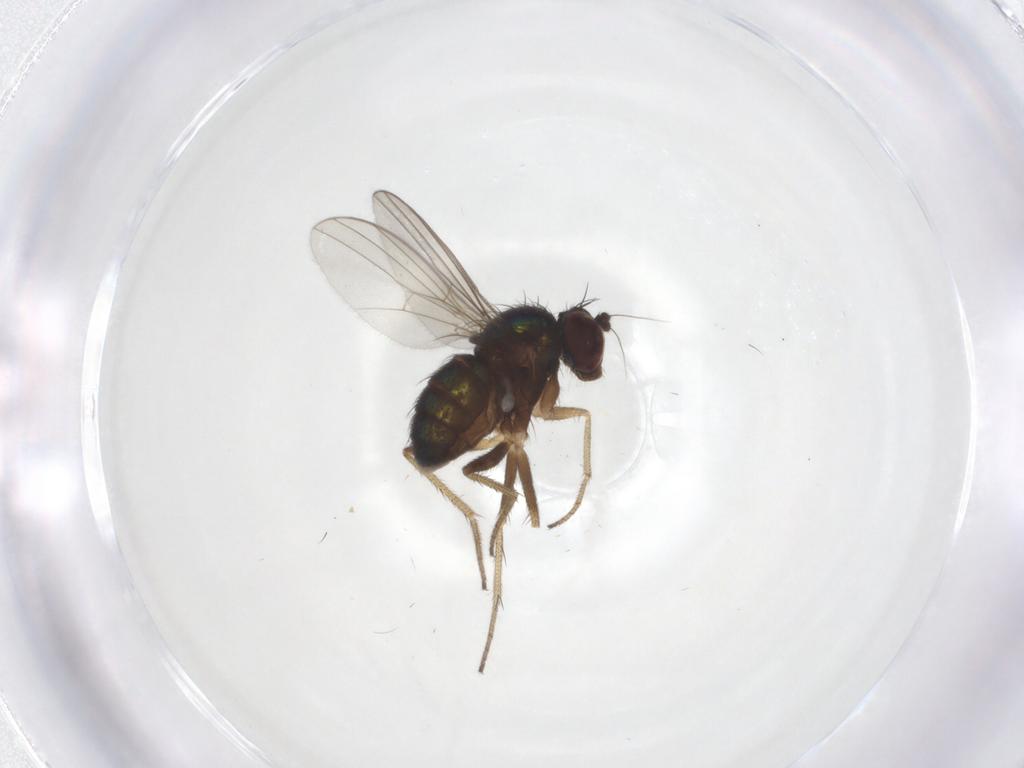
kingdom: Animalia
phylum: Arthropoda
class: Insecta
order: Diptera
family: Dolichopodidae
